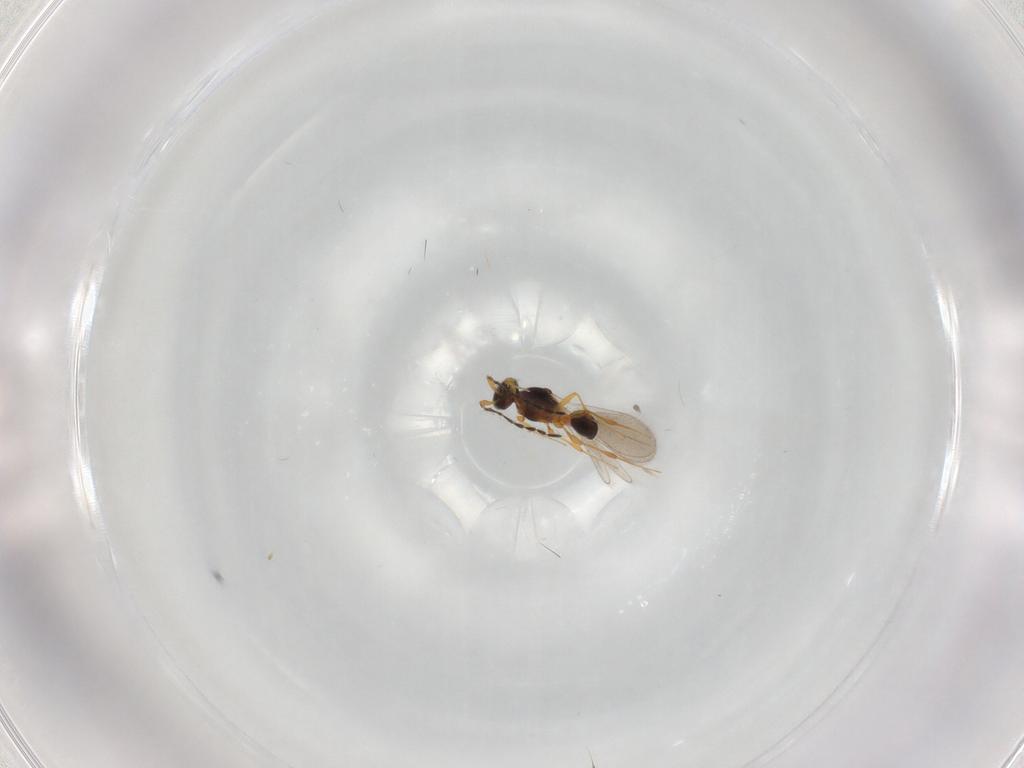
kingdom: Animalia
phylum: Arthropoda
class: Insecta
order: Hymenoptera
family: Platygastridae
